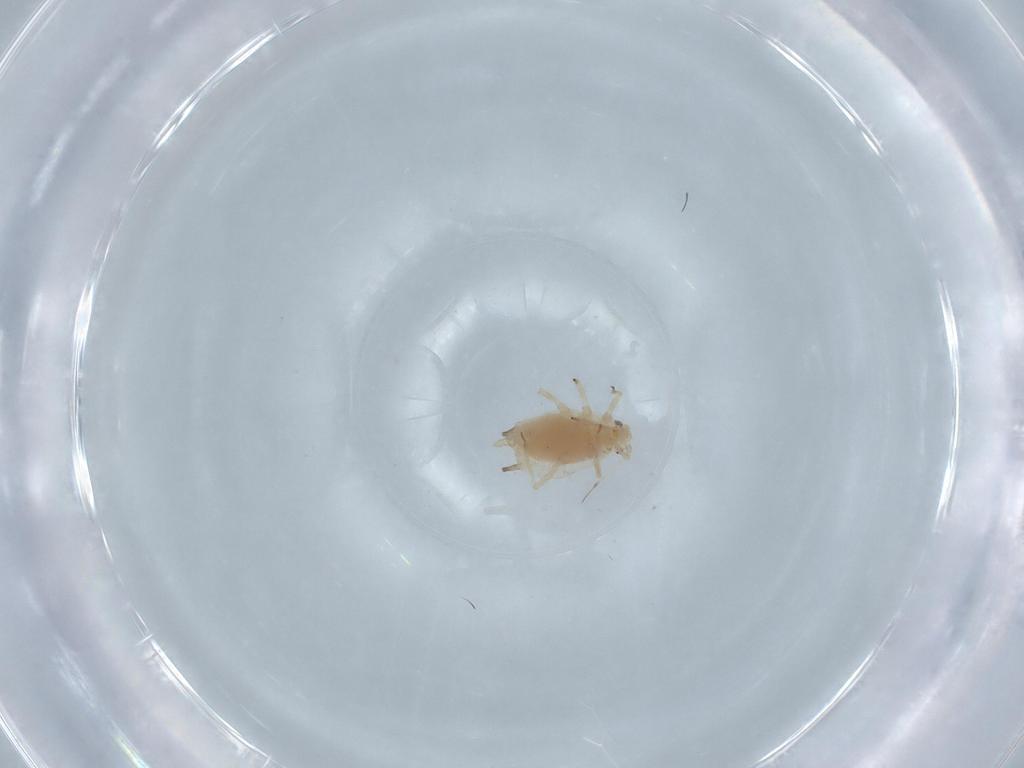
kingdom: Animalia
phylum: Arthropoda
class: Insecta
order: Hemiptera
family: Aphididae
